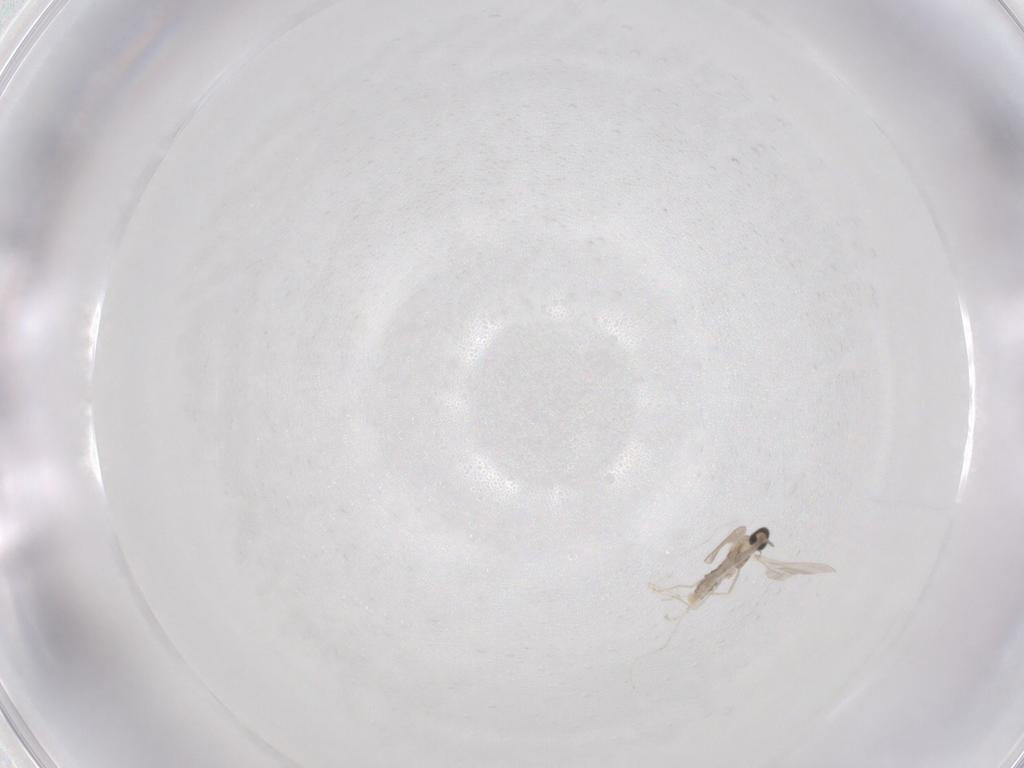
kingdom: Animalia
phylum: Arthropoda
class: Insecta
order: Diptera
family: Cecidomyiidae
